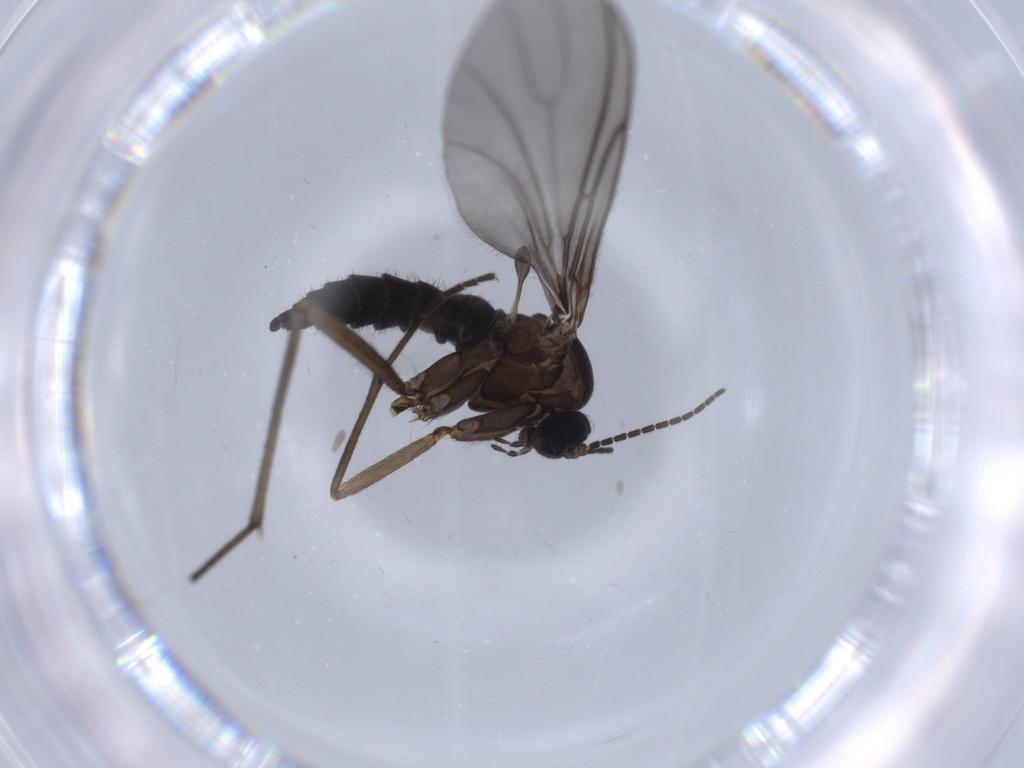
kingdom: Animalia
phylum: Arthropoda
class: Insecta
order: Diptera
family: Sciaridae
